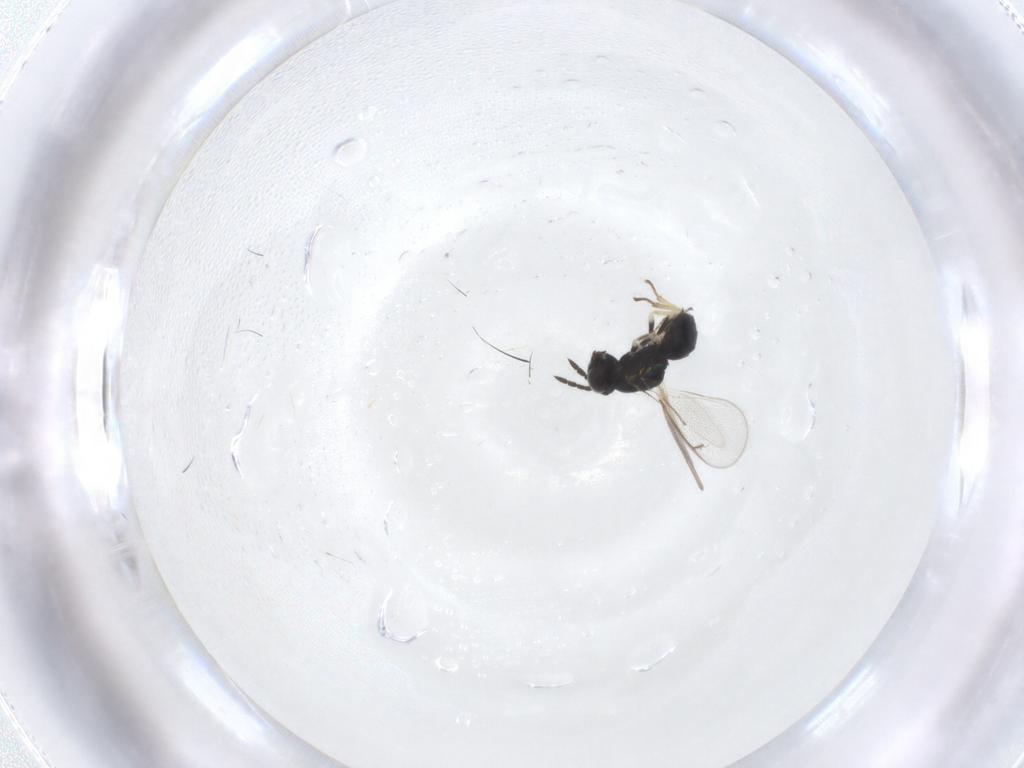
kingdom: Animalia
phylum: Arthropoda
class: Insecta
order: Hymenoptera
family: Eulophidae
